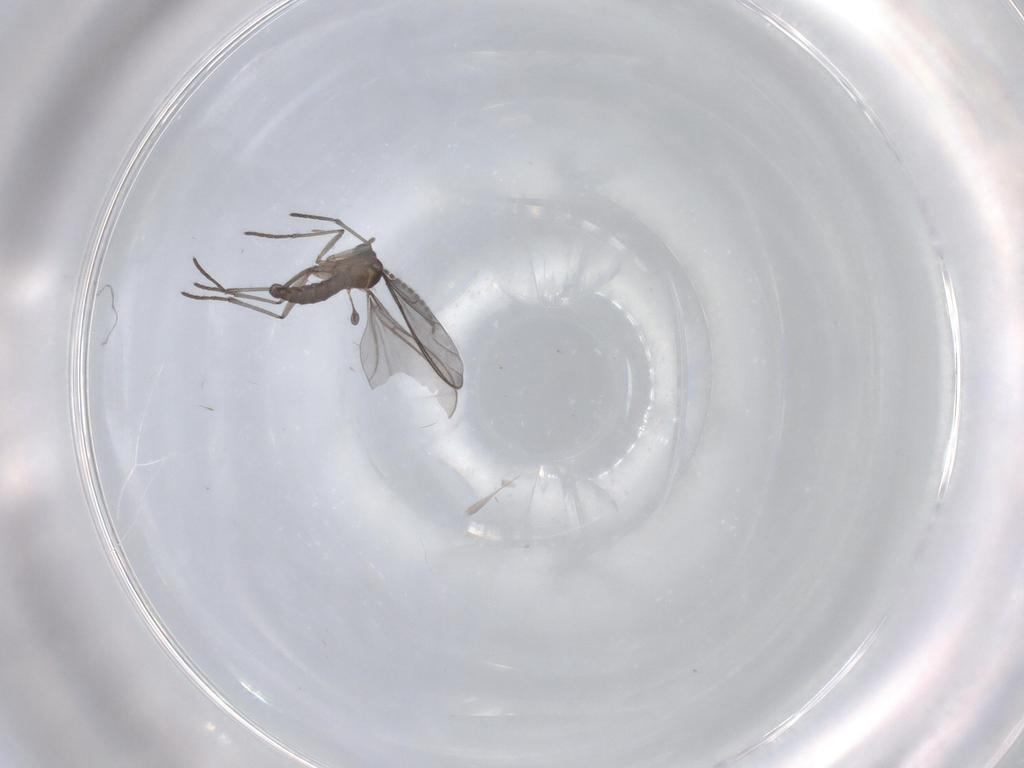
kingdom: Animalia
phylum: Arthropoda
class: Insecta
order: Diptera
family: Sciaridae
